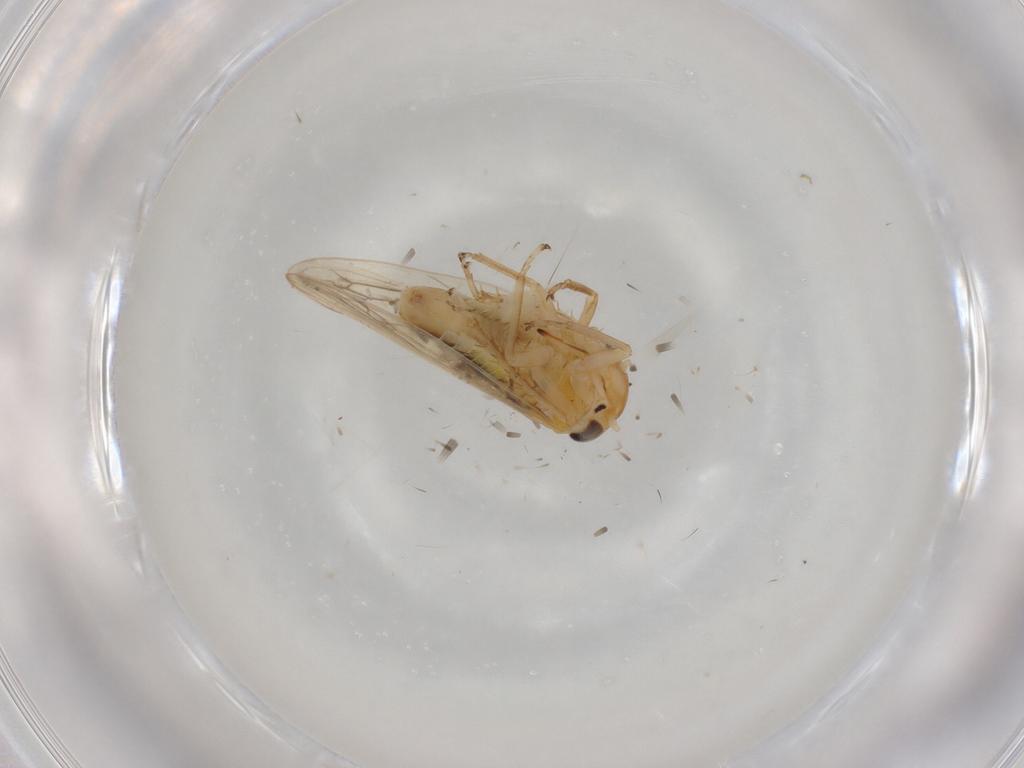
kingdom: Animalia
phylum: Arthropoda
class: Insecta
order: Hemiptera
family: Cicadellidae
